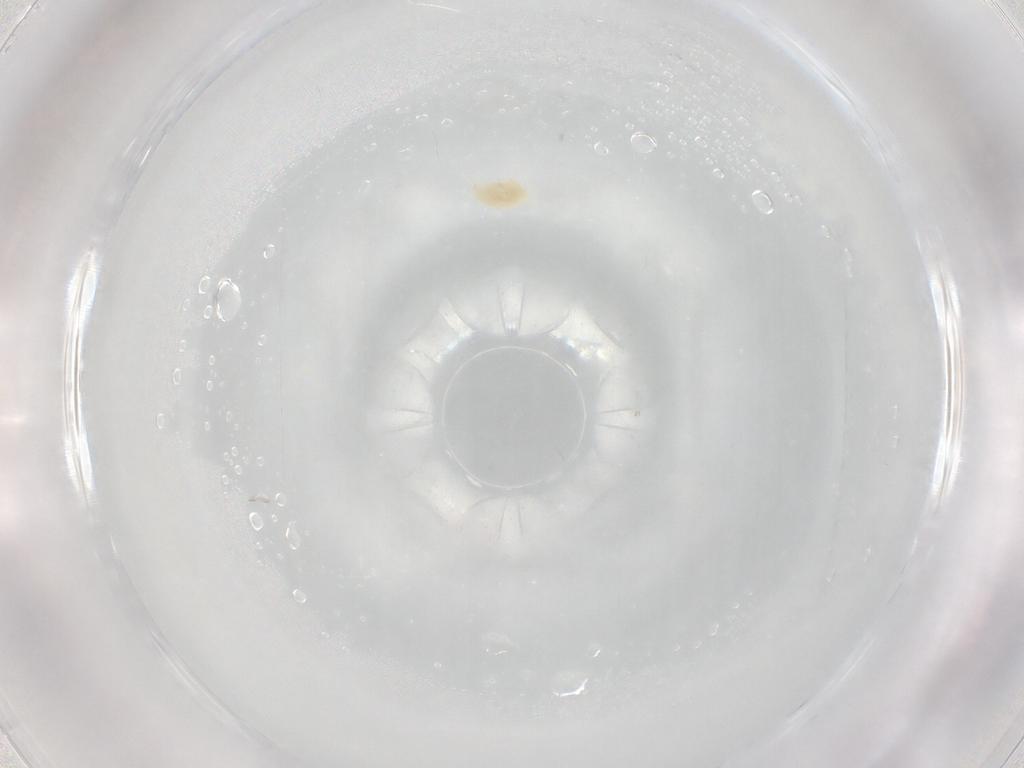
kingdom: Animalia
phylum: Arthropoda
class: Arachnida
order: Trombidiformes
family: Eupodidae
